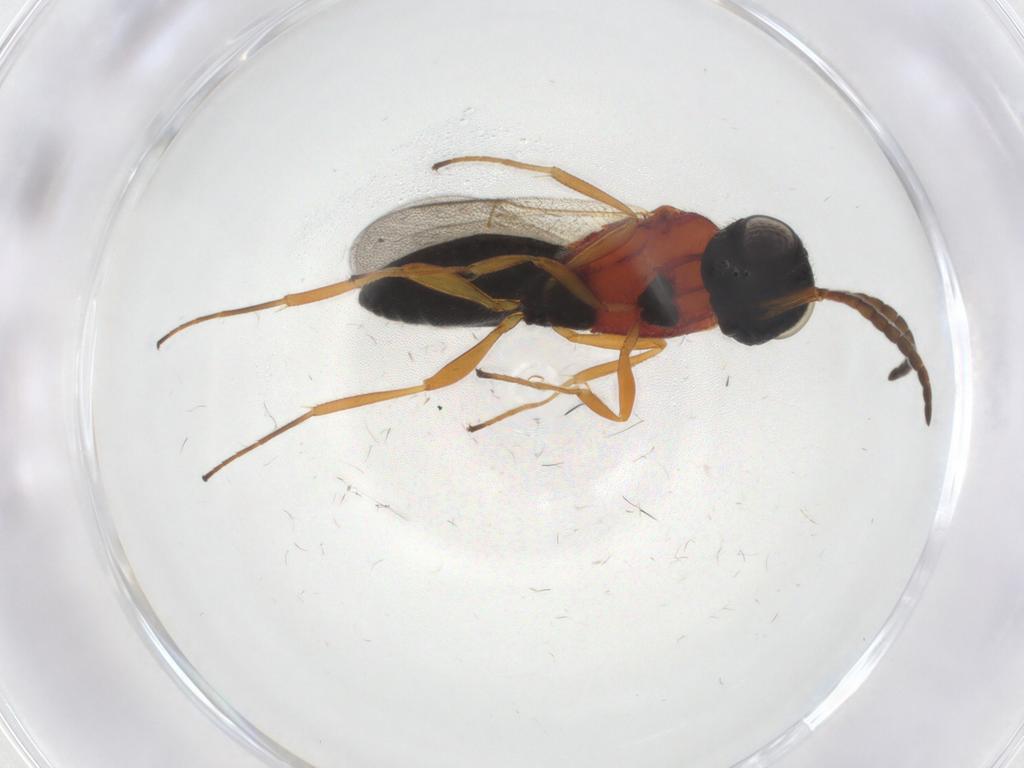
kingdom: Animalia
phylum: Arthropoda
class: Insecta
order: Hymenoptera
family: Scelionidae
